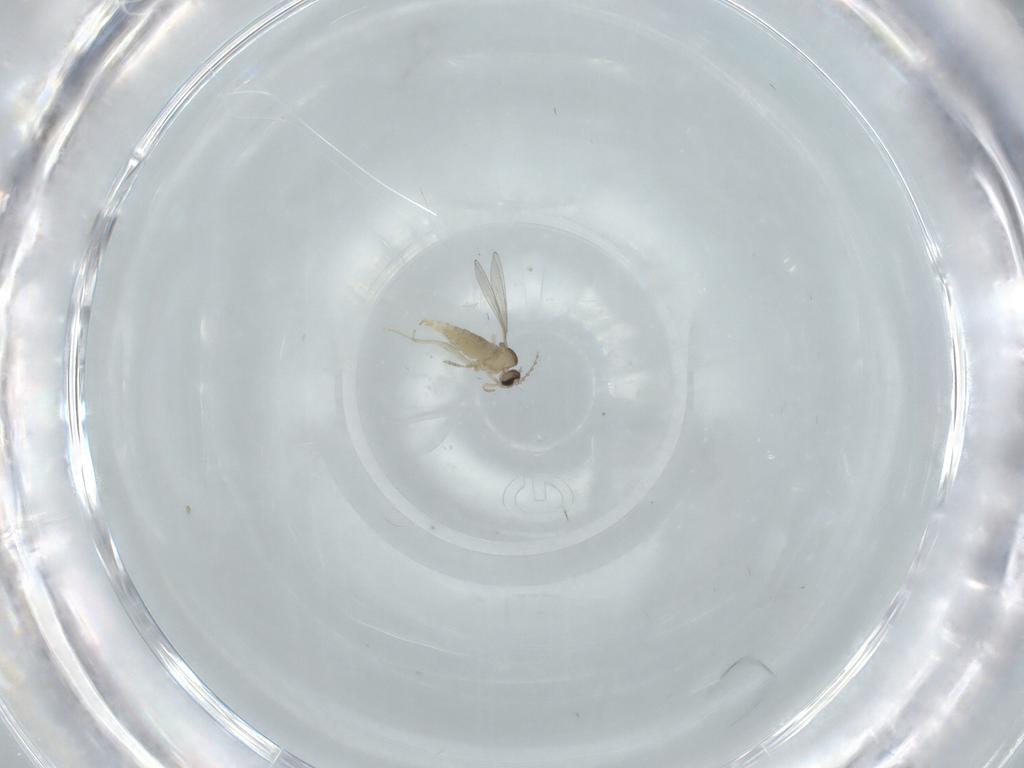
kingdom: Animalia
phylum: Arthropoda
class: Insecta
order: Diptera
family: Cecidomyiidae
